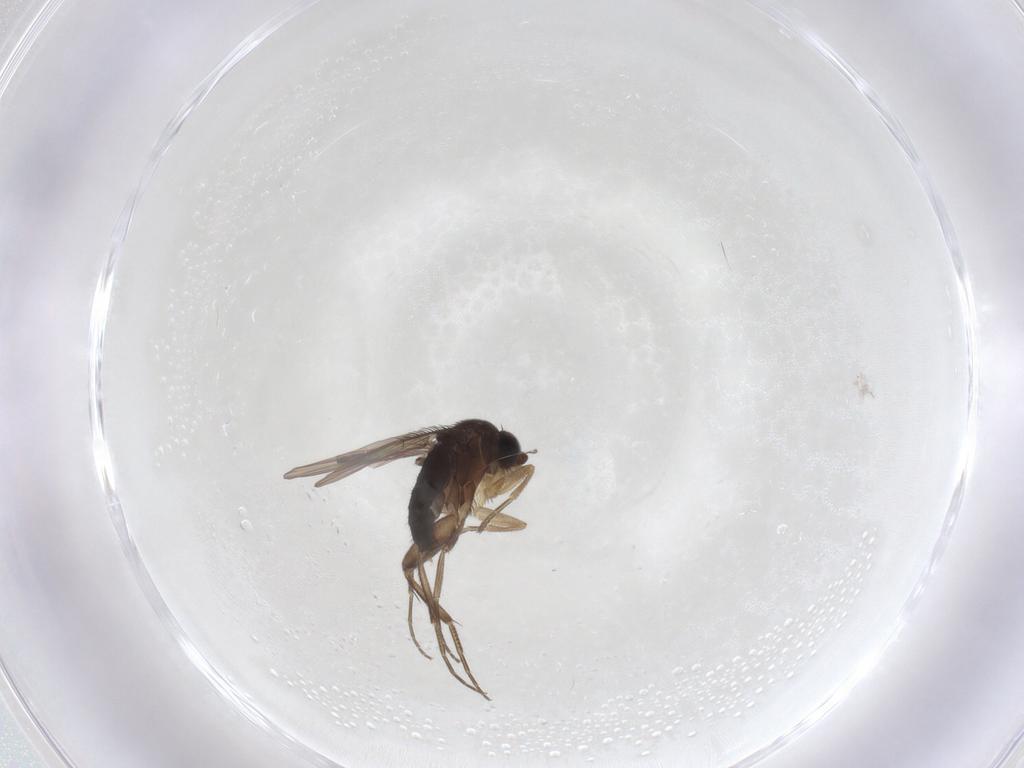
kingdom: Animalia
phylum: Arthropoda
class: Insecta
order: Diptera
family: Phoridae
